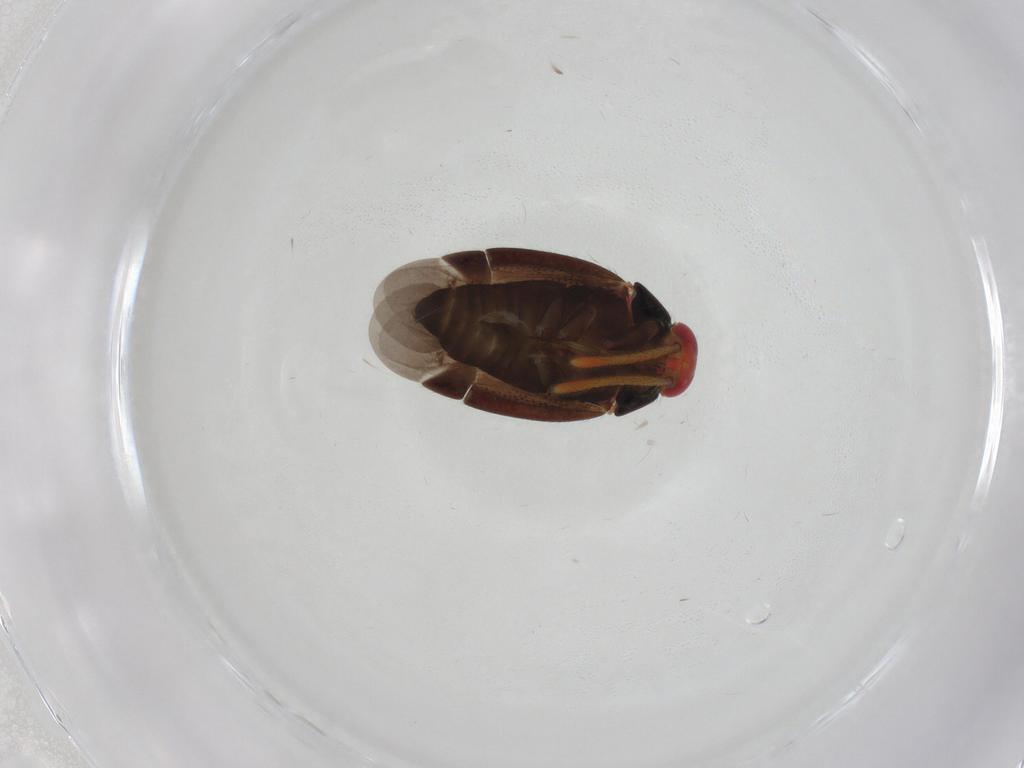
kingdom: Animalia
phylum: Arthropoda
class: Insecta
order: Hemiptera
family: Miridae
